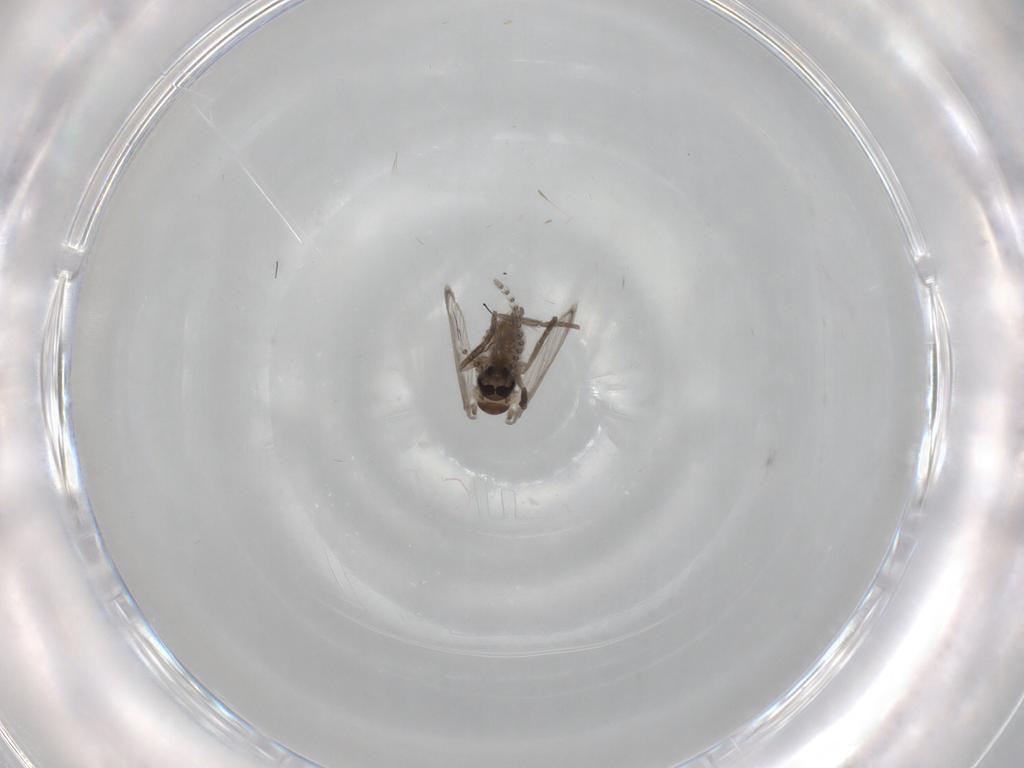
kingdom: Animalia
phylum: Arthropoda
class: Insecta
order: Diptera
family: Psychodidae
